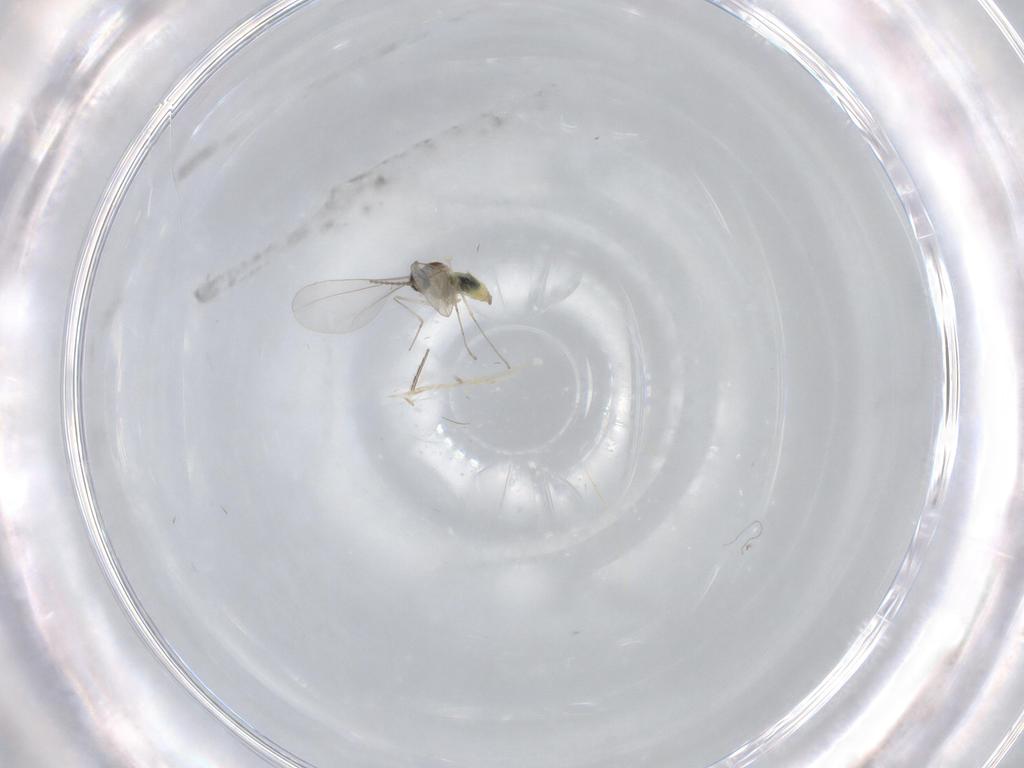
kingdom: Animalia
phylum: Arthropoda
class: Insecta
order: Diptera
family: Cecidomyiidae
